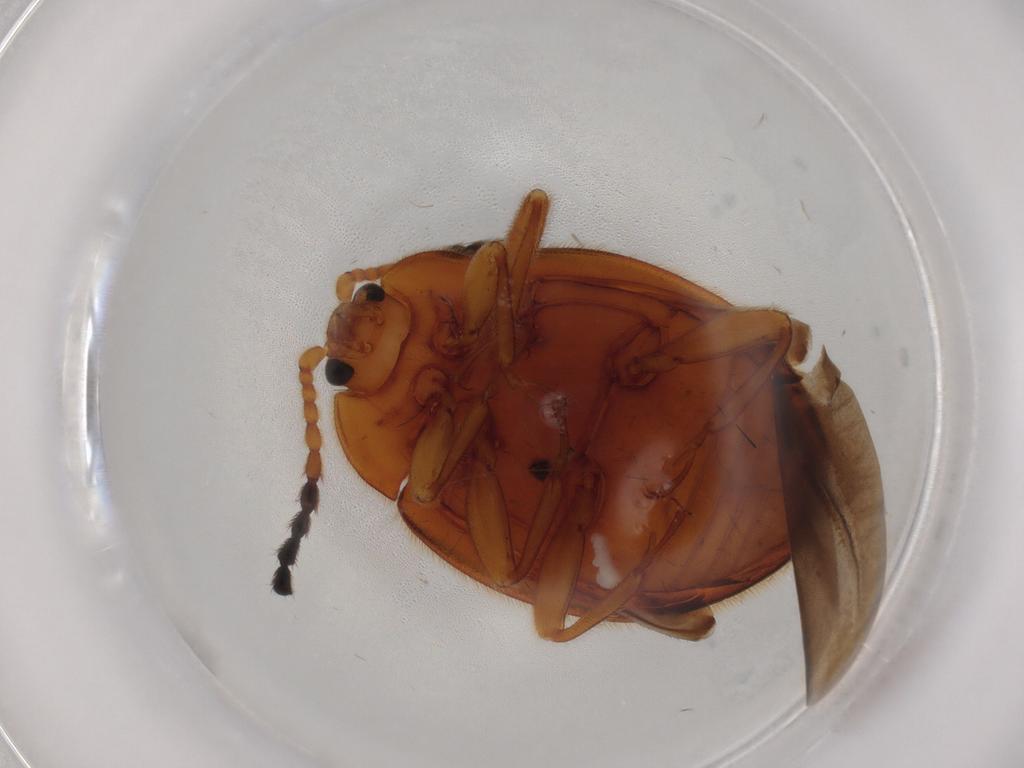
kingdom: Animalia
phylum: Arthropoda
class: Insecta
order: Coleoptera
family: Endomychidae
